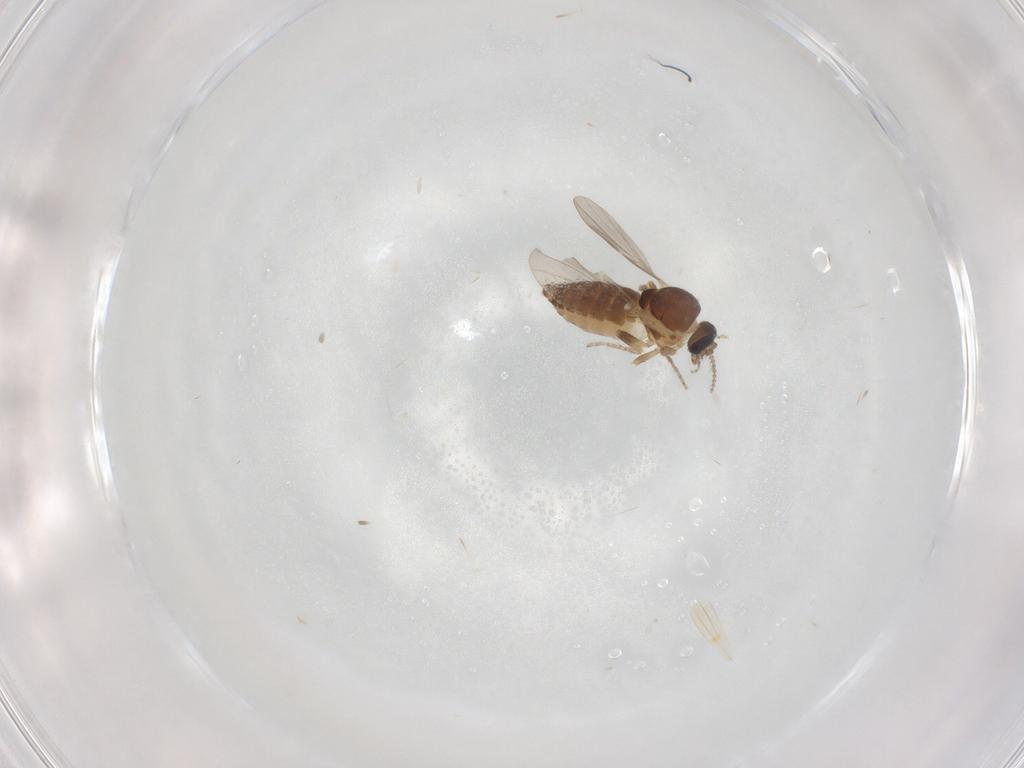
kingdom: Animalia
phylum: Arthropoda
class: Insecta
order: Diptera
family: Ceratopogonidae
